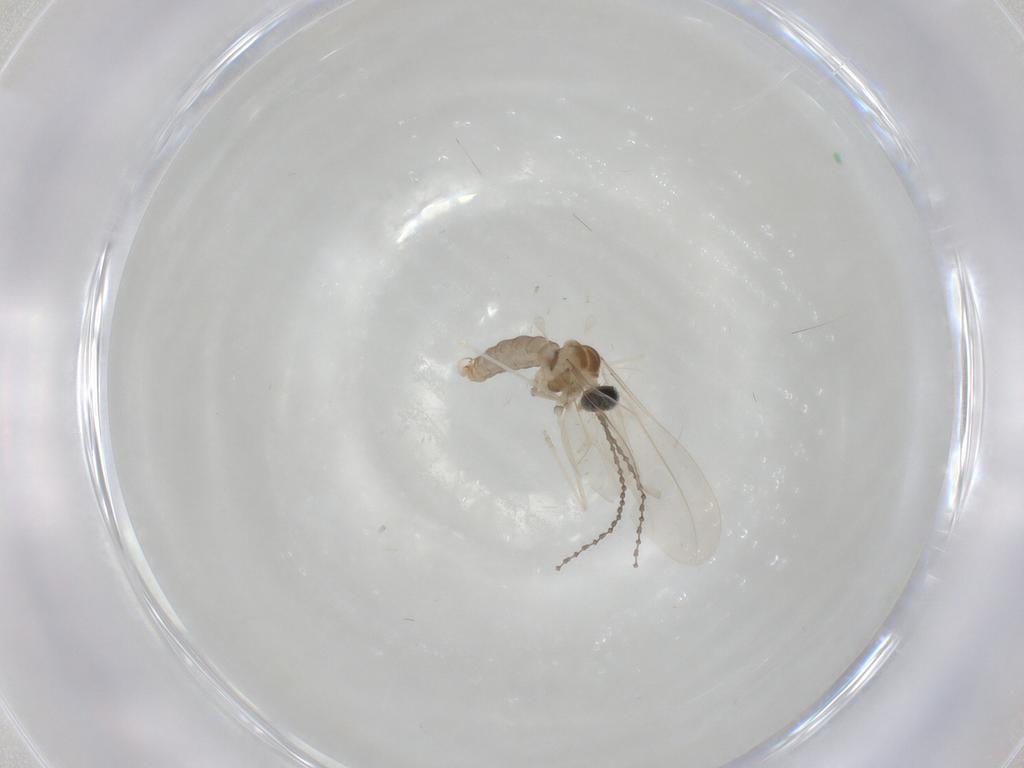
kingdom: Animalia
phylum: Arthropoda
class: Insecta
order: Diptera
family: Cecidomyiidae
